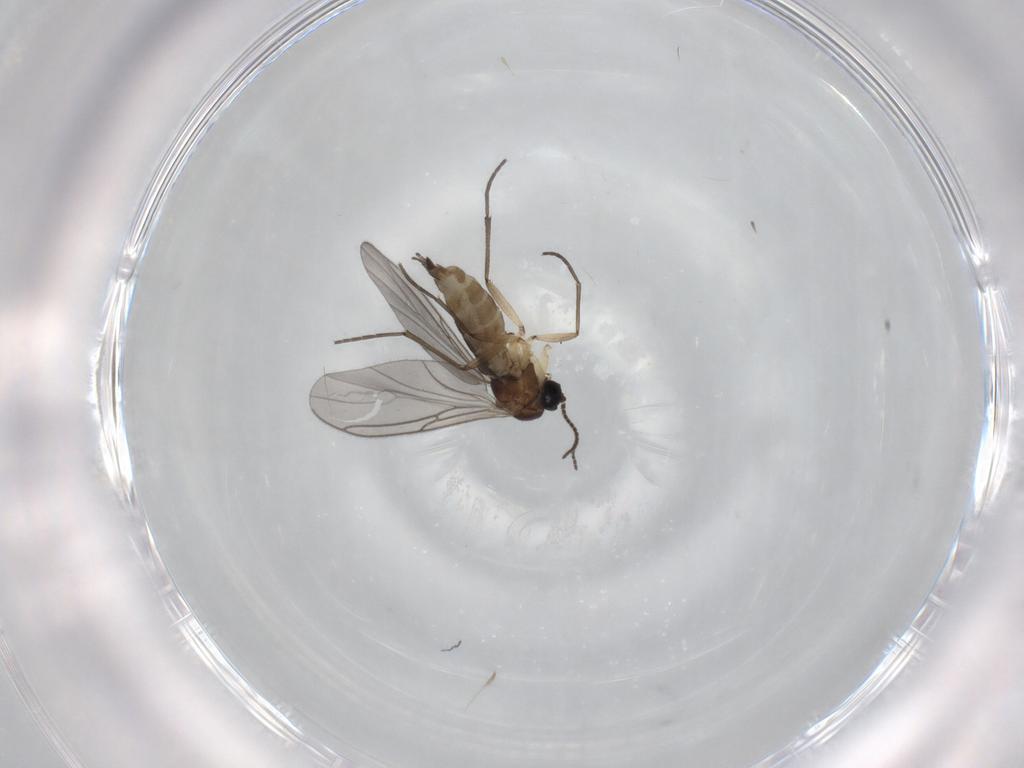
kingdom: Animalia
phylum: Arthropoda
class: Insecta
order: Diptera
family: Sciaridae
